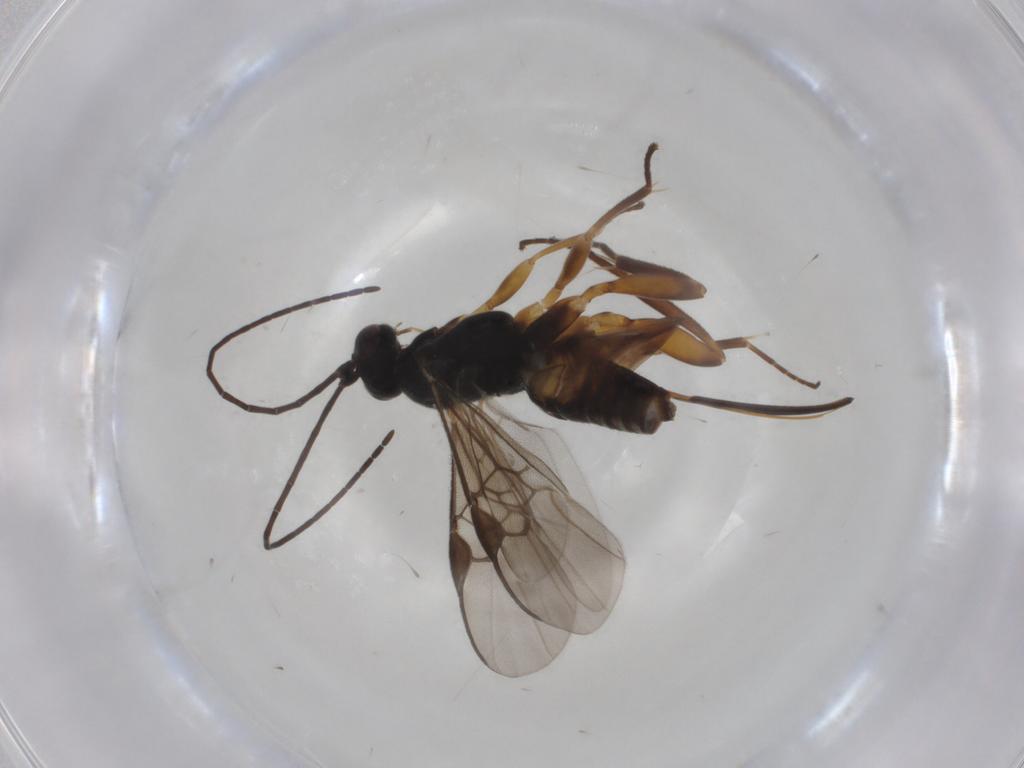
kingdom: Animalia
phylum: Arthropoda
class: Insecta
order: Hymenoptera
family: Braconidae
